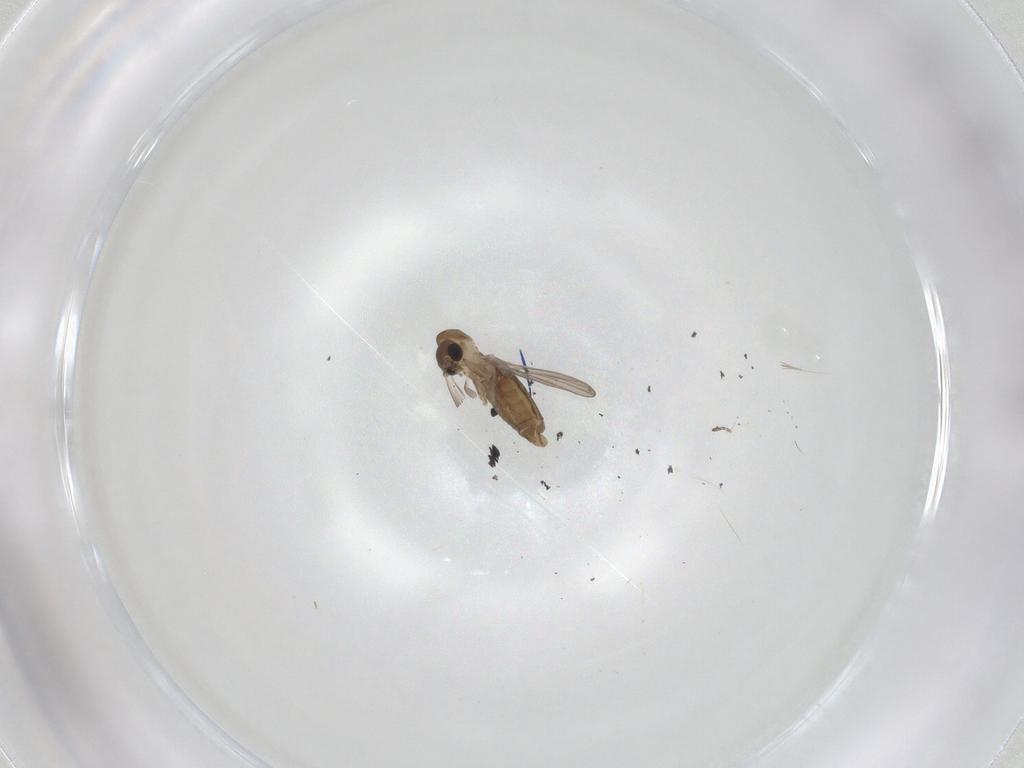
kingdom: Animalia
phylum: Arthropoda
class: Insecta
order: Diptera
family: Psychodidae
